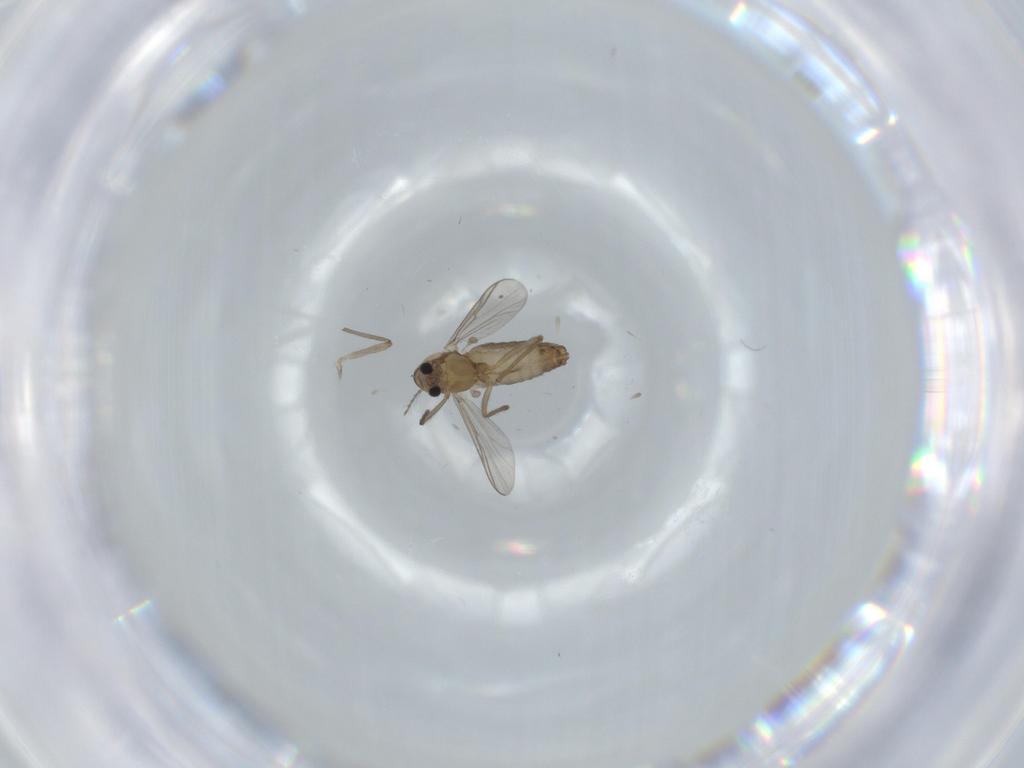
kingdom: Animalia
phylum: Arthropoda
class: Insecta
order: Diptera
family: Chironomidae
